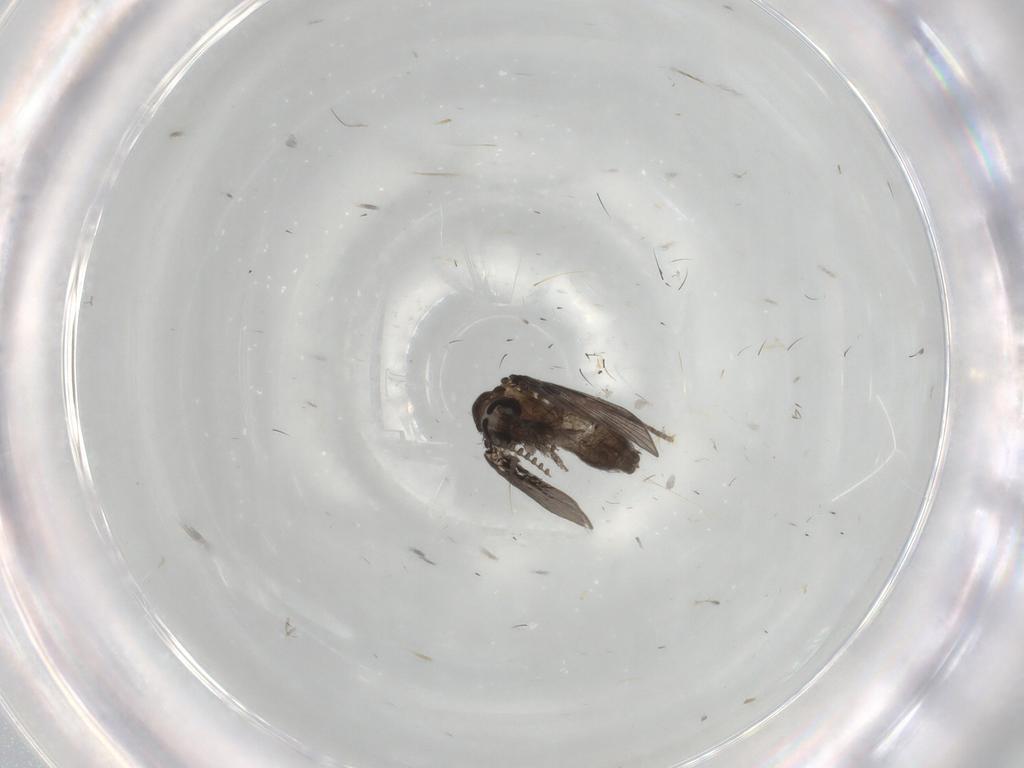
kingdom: Animalia
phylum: Arthropoda
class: Insecta
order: Diptera
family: Psychodidae
